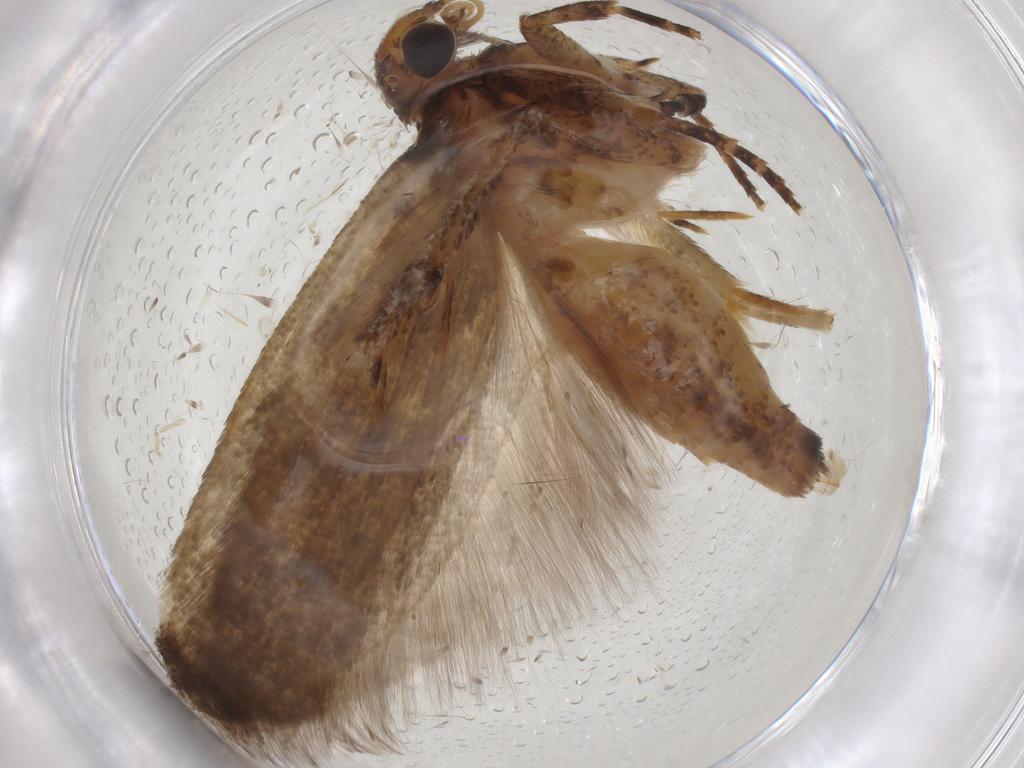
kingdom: Animalia
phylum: Arthropoda
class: Insecta
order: Lepidoptera
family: Gelechiidae
